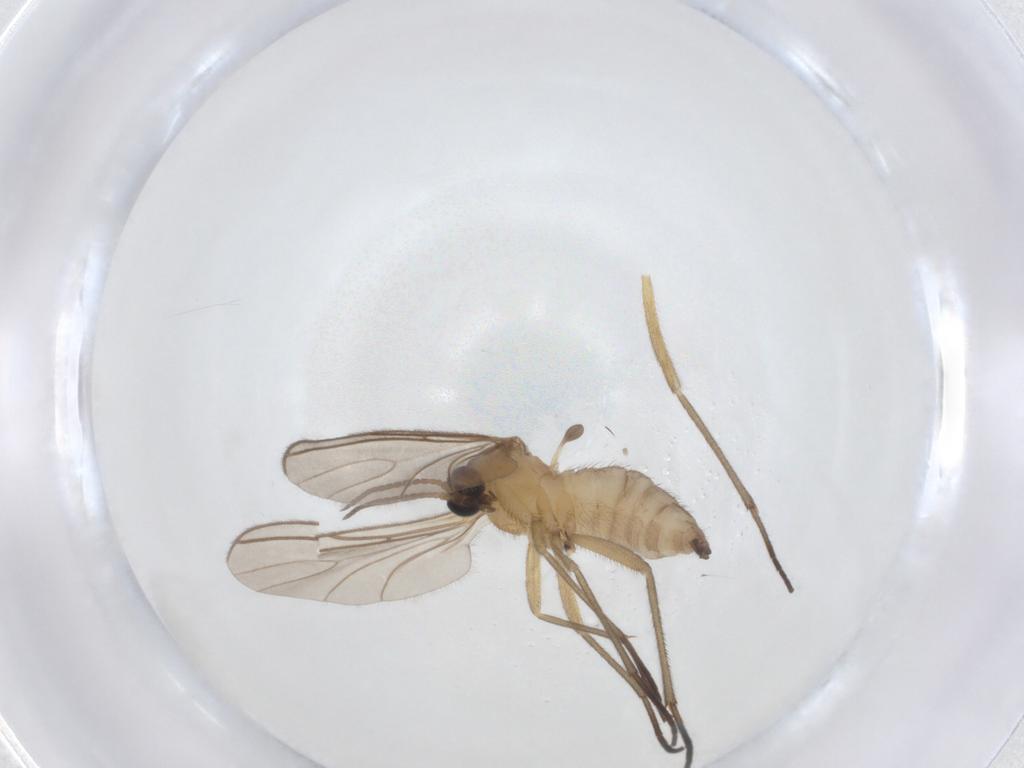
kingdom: Animalia
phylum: Arthropoda
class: Insecta
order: Diptera
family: Sciaridae
